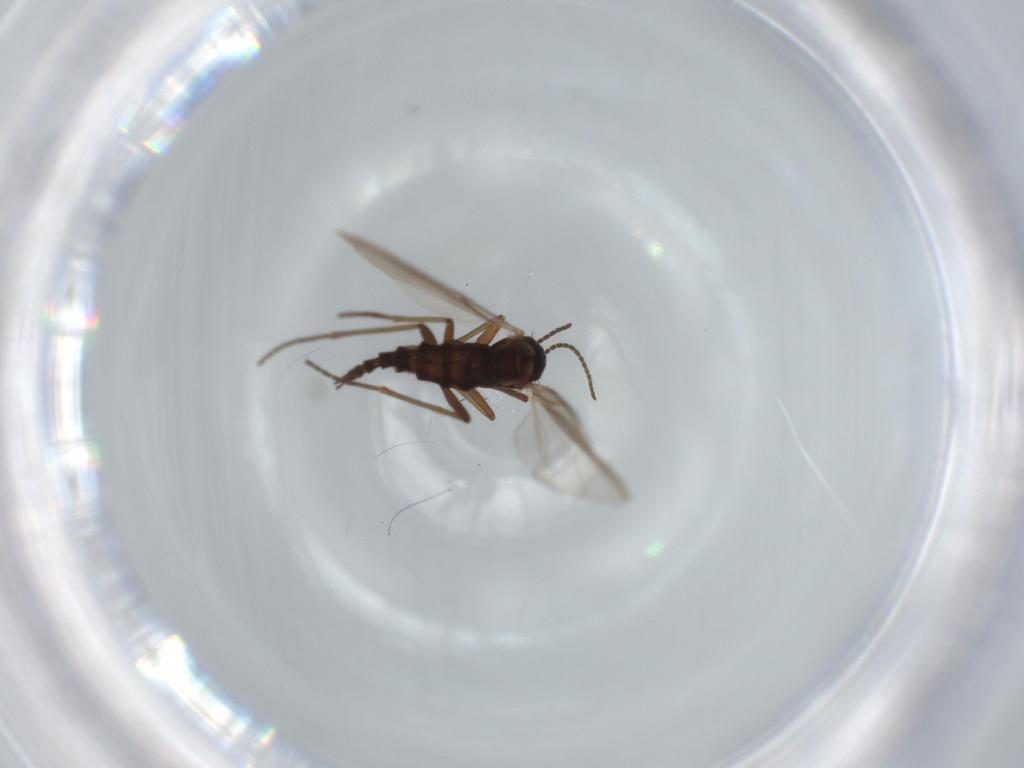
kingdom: Animalia
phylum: Arthropoda
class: Insecta
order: Diptera
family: Sciaridae
